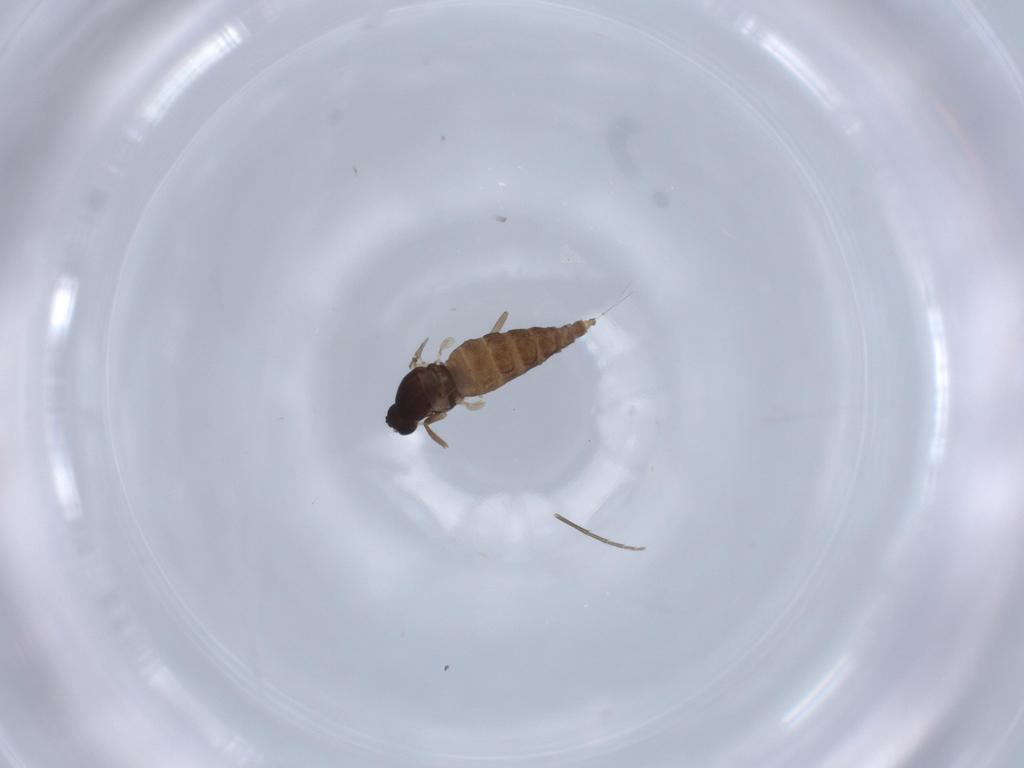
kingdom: Animalia
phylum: Arthropoda
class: Insecta
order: Diptera
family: Cecidomyiidae
